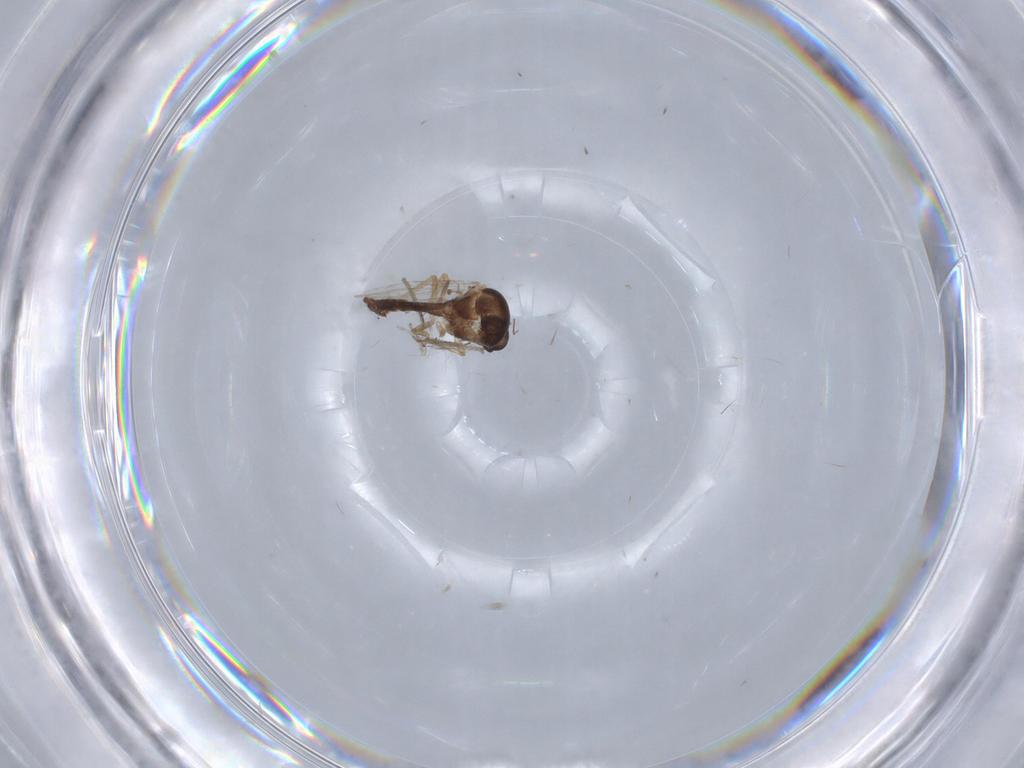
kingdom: Animalia
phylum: Arthropoda
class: Insecta
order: Diptera
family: Ceratopogonidae
